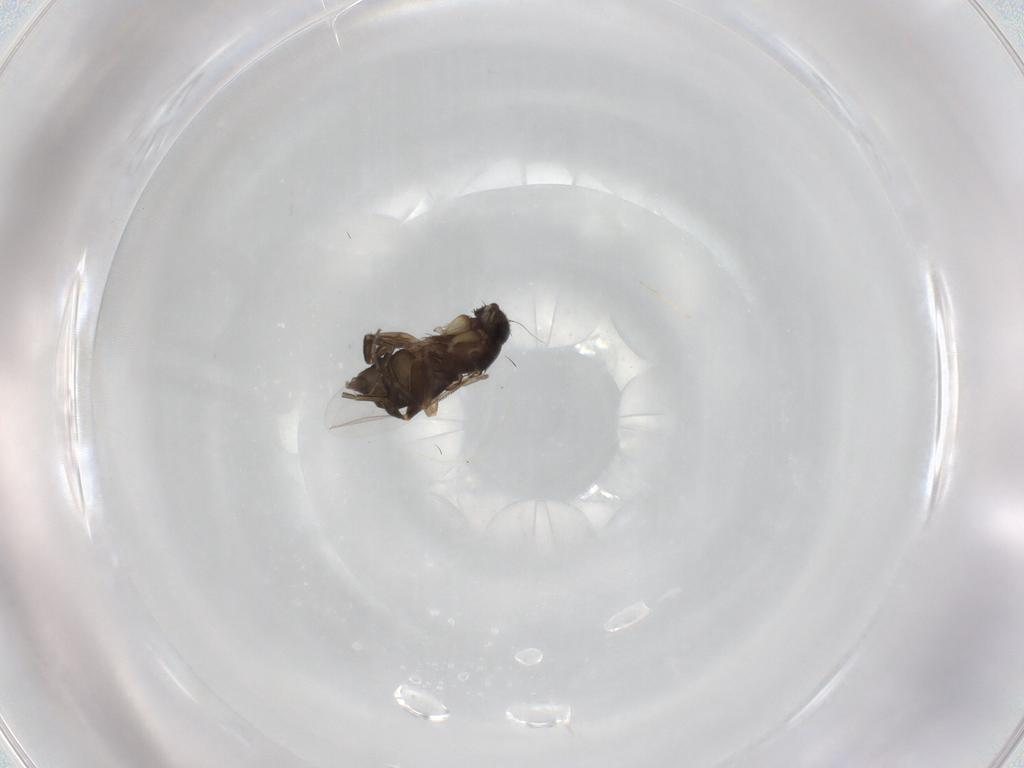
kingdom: Animalia
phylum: Arthropoda
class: Insecta
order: Diptera
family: Phoridae
